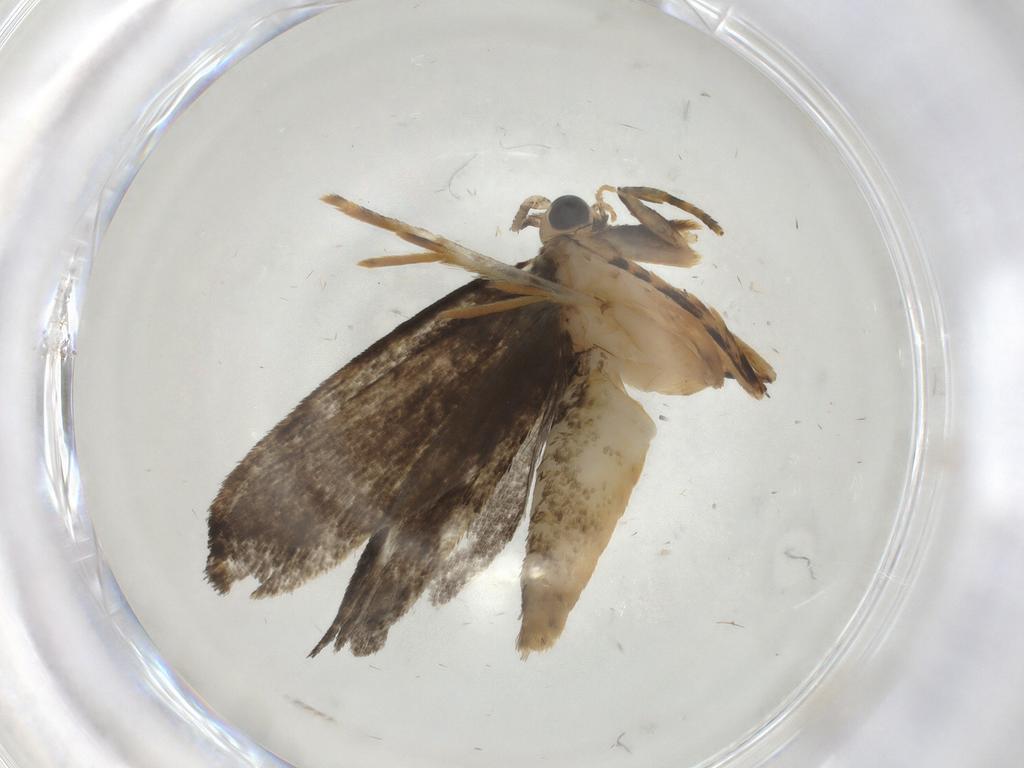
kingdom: Animalia
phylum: Arthropoda
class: Insecta
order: Lepidoptera
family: Tineidae
